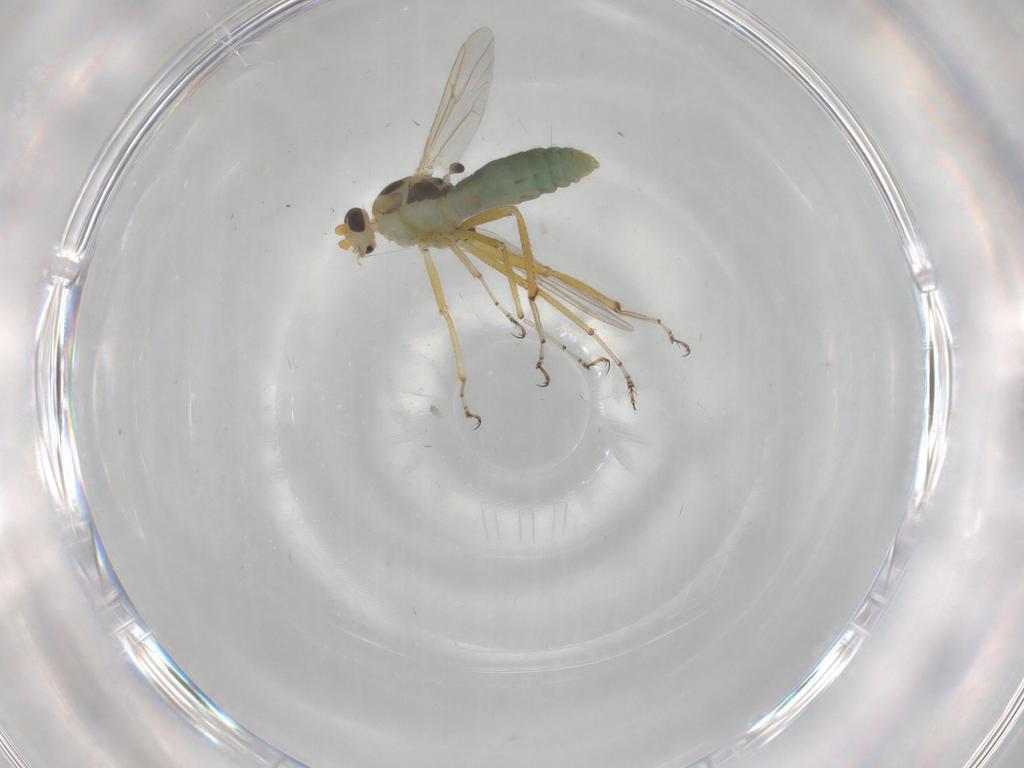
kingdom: Animalia
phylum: Arthropoda
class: Insecta
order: Diptera
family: Ceratopogonidae
